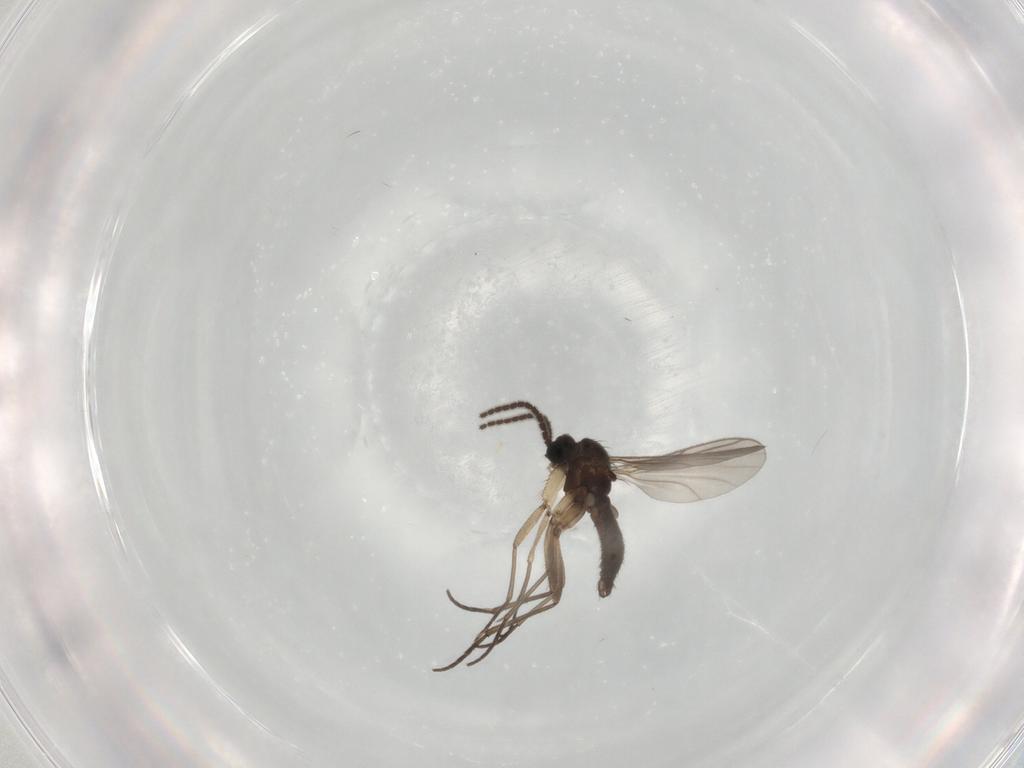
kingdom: Animalia
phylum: Arthropoda
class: Insecta
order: Diptera
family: Sciaridae
